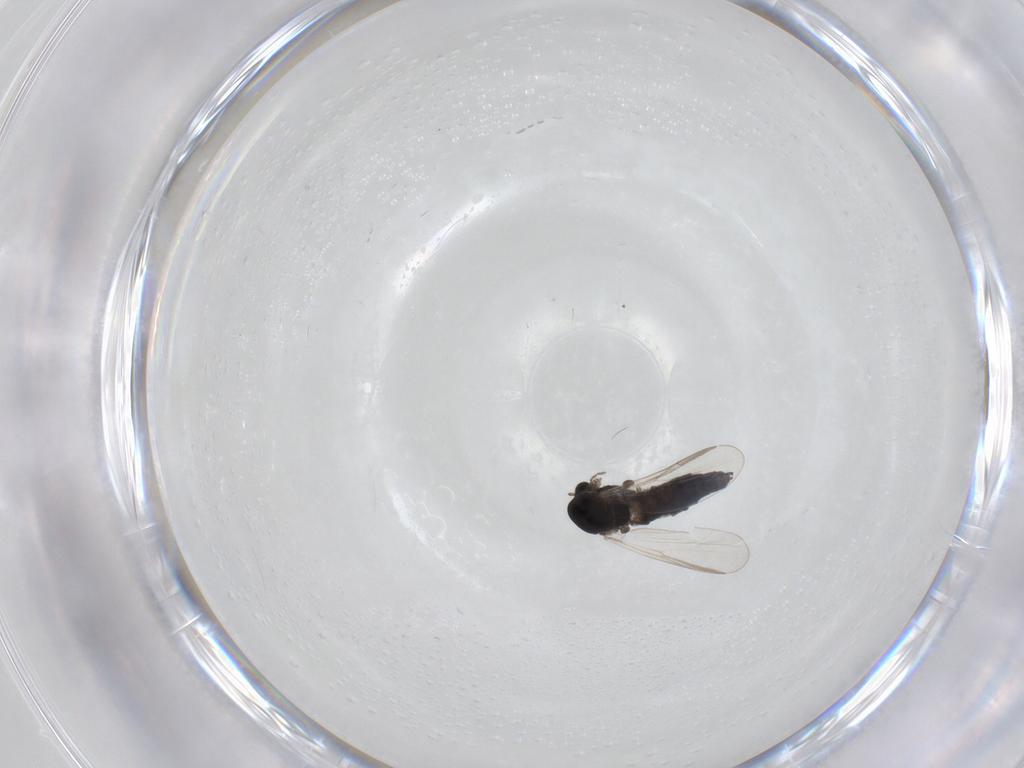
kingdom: Animalia
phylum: Arthropoda
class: Insecta
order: Diptera
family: Chironomidae
